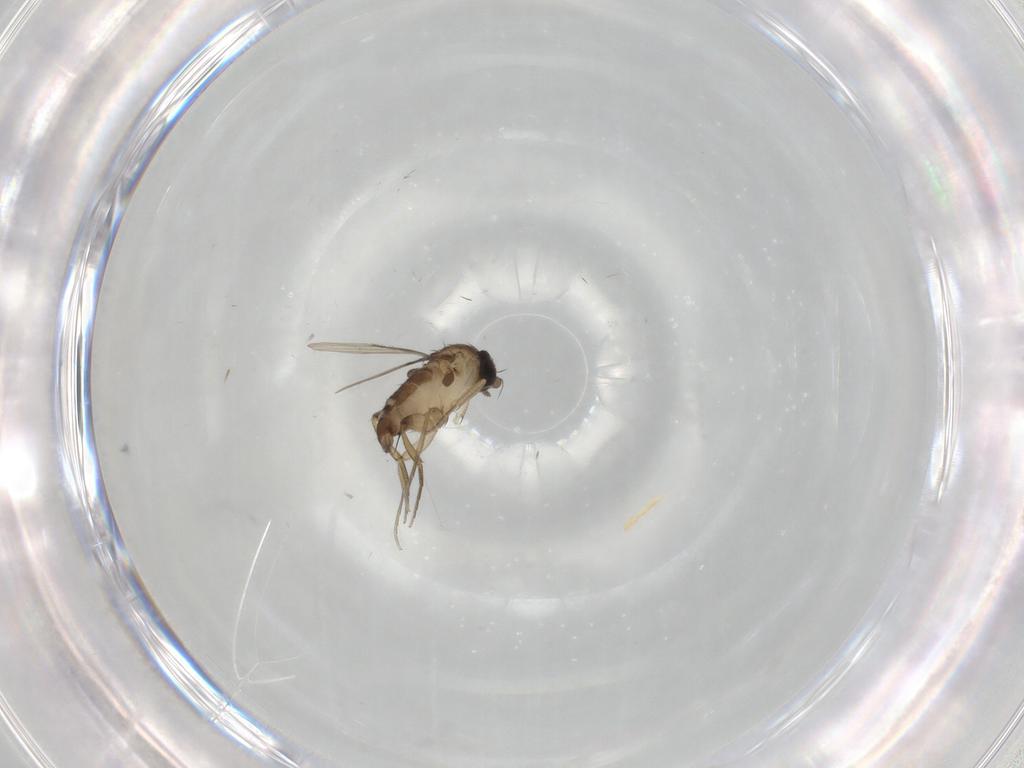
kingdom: Animalia
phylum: Arthropoda
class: Insecta
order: Diptera
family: Phoridae
